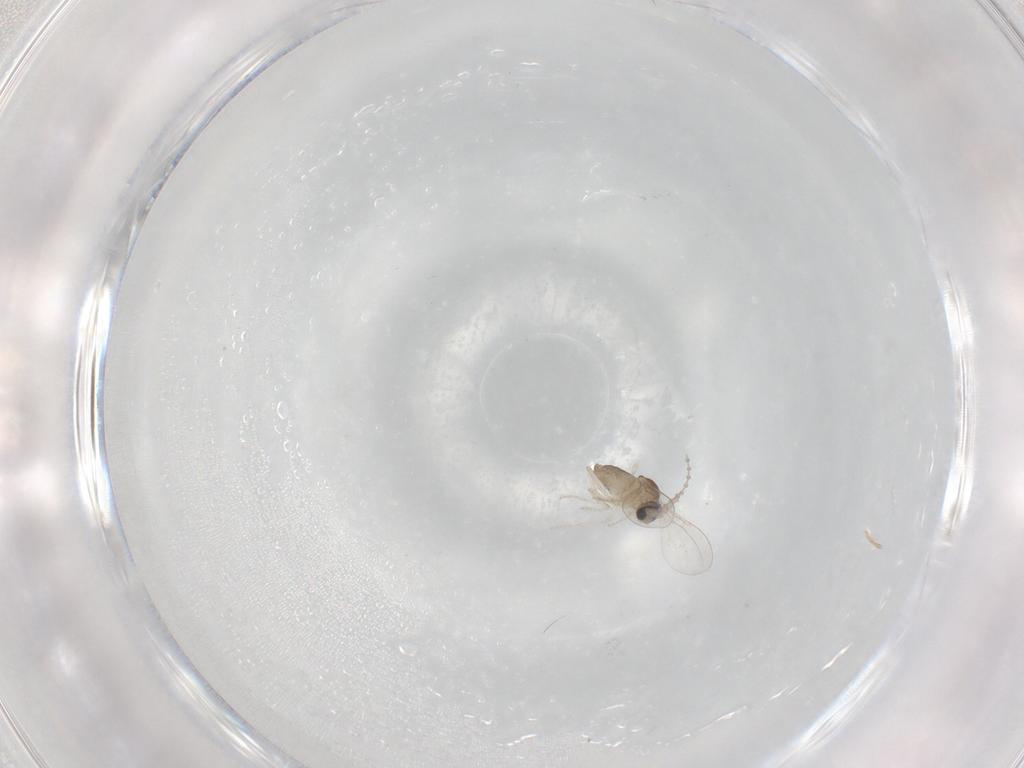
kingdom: Animalia
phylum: Arthropoda
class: Insecta
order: Diptera
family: Cecidomyiidae
